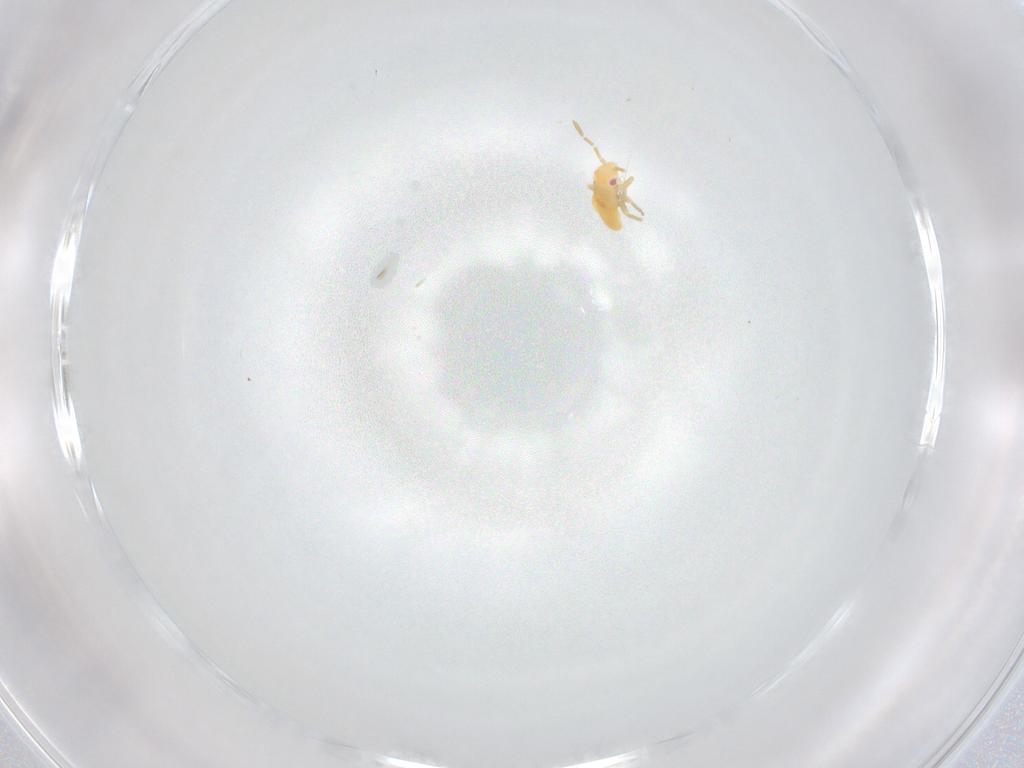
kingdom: Animalia
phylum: Arthropoda
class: Insecta
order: Hemiptera
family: Miridae
